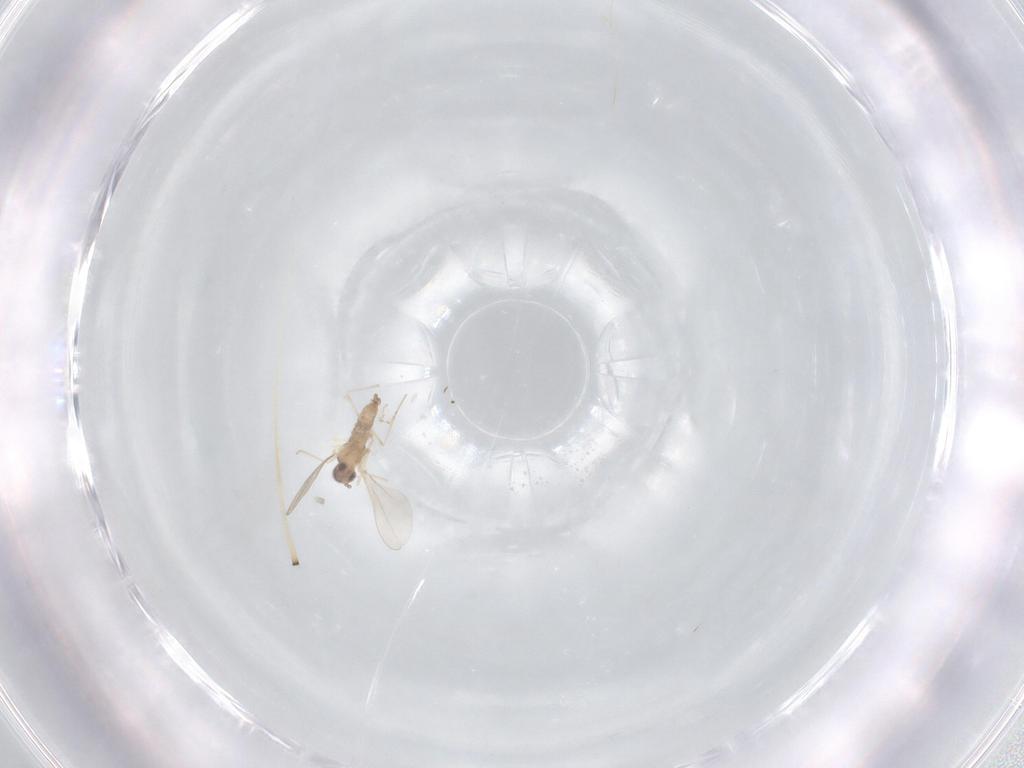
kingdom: Animalia
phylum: Arthropoda
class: Insecta
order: Diptera
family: Cecidomyiidae
